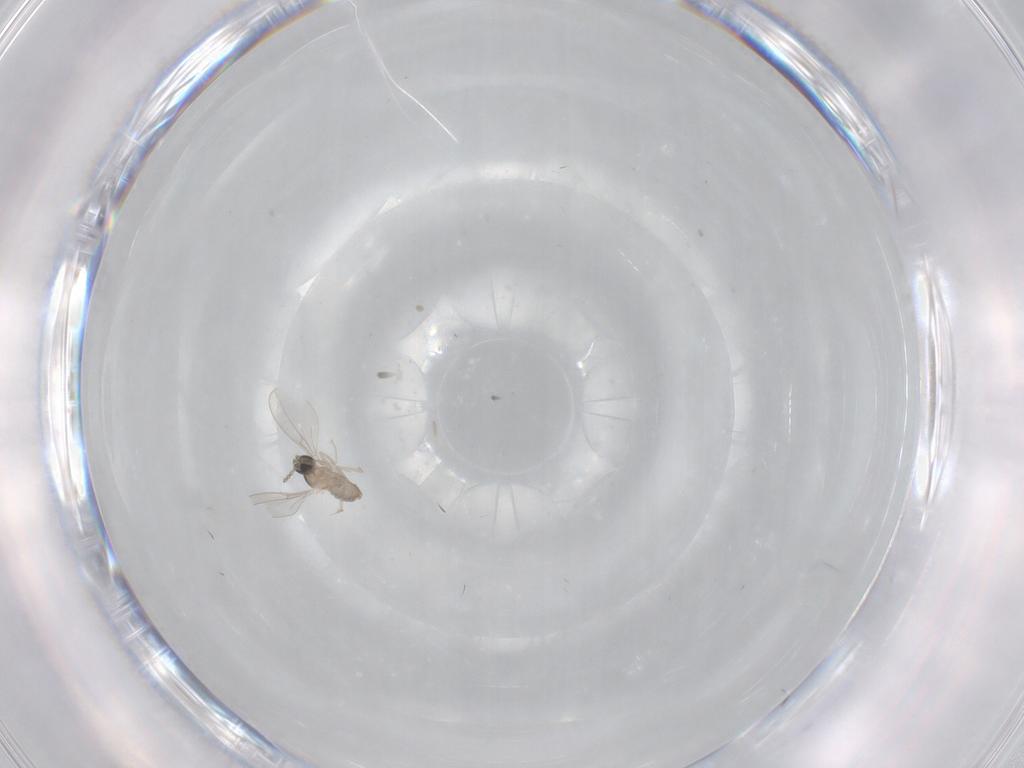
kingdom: Animalia
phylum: Arthropoda
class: Insecta
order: Diptera
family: Cecidomyiidae
